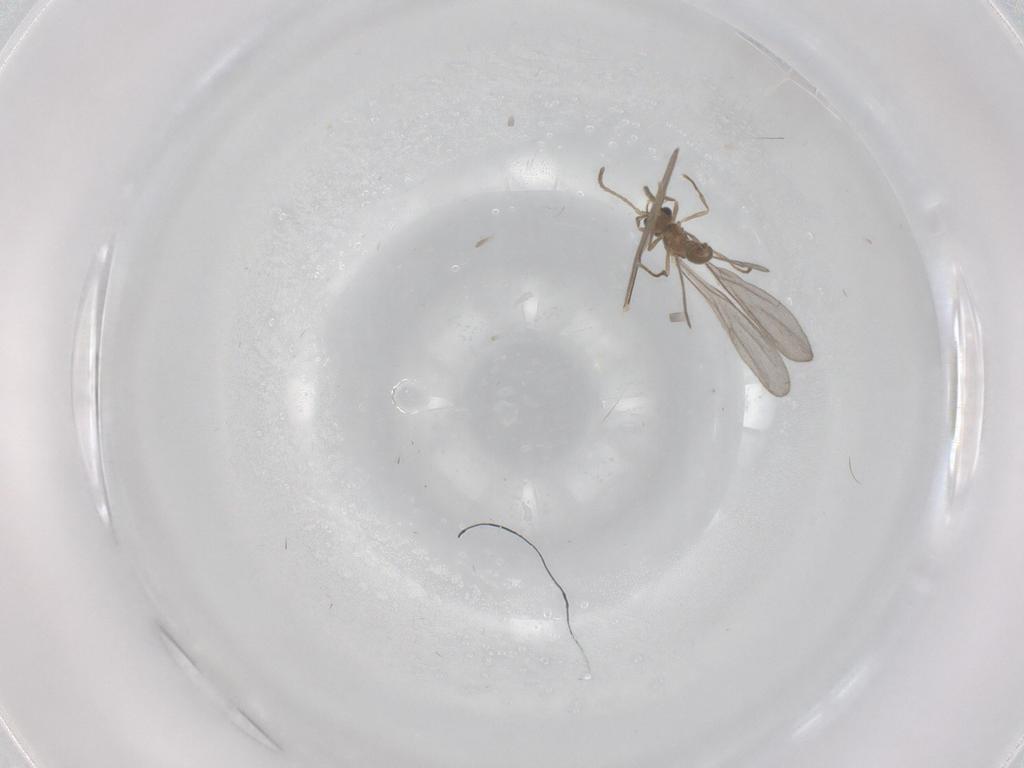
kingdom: Animalia
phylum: Arthropoda
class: Insecta
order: Hymenoptera
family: Formicidae
